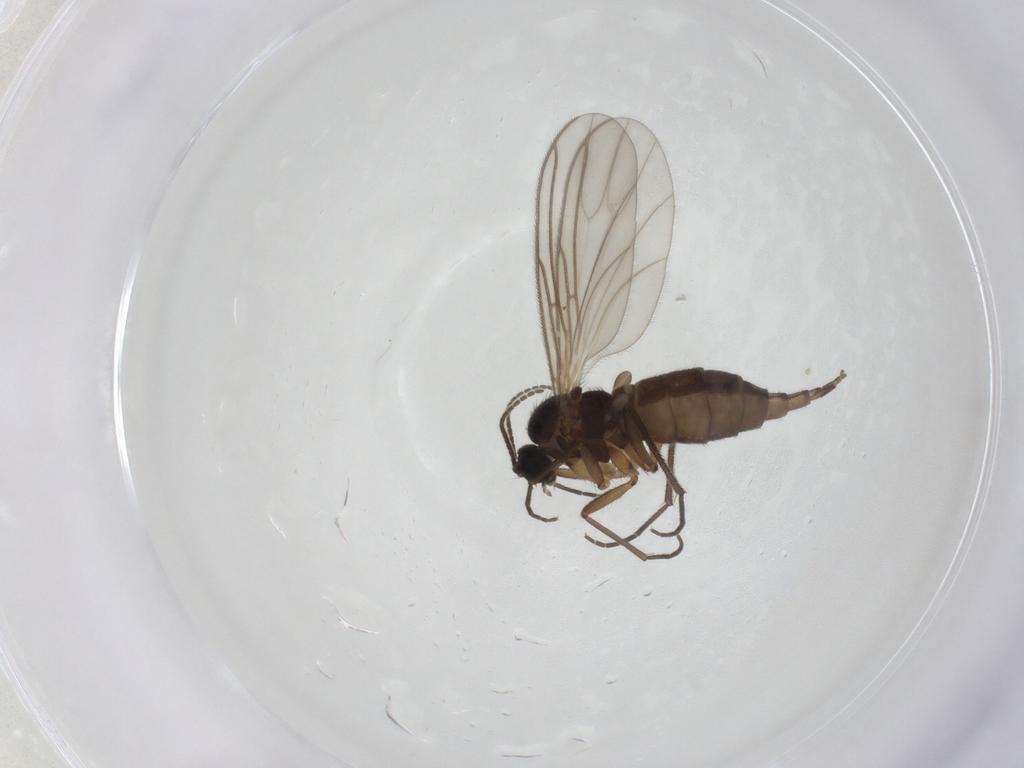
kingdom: Animalia
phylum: Arthropoda
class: Insecta
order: Diptera
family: Sciaridae
